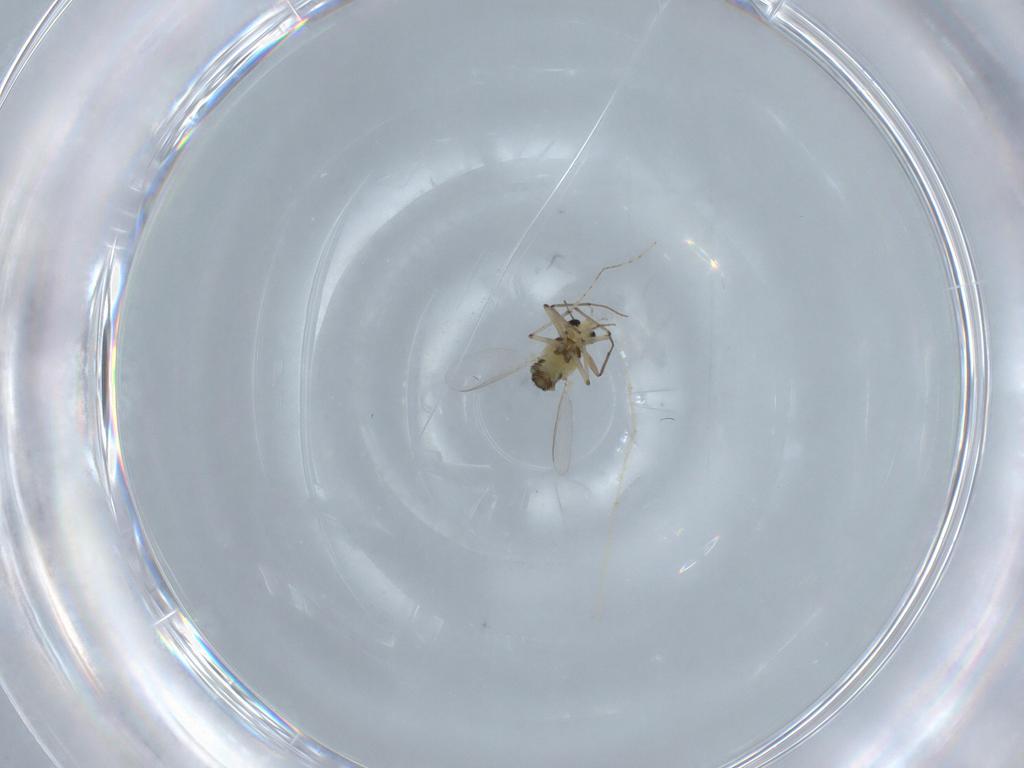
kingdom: Animalia
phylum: Arthropoda
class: Insecta
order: Diptera
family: Chironomidae
